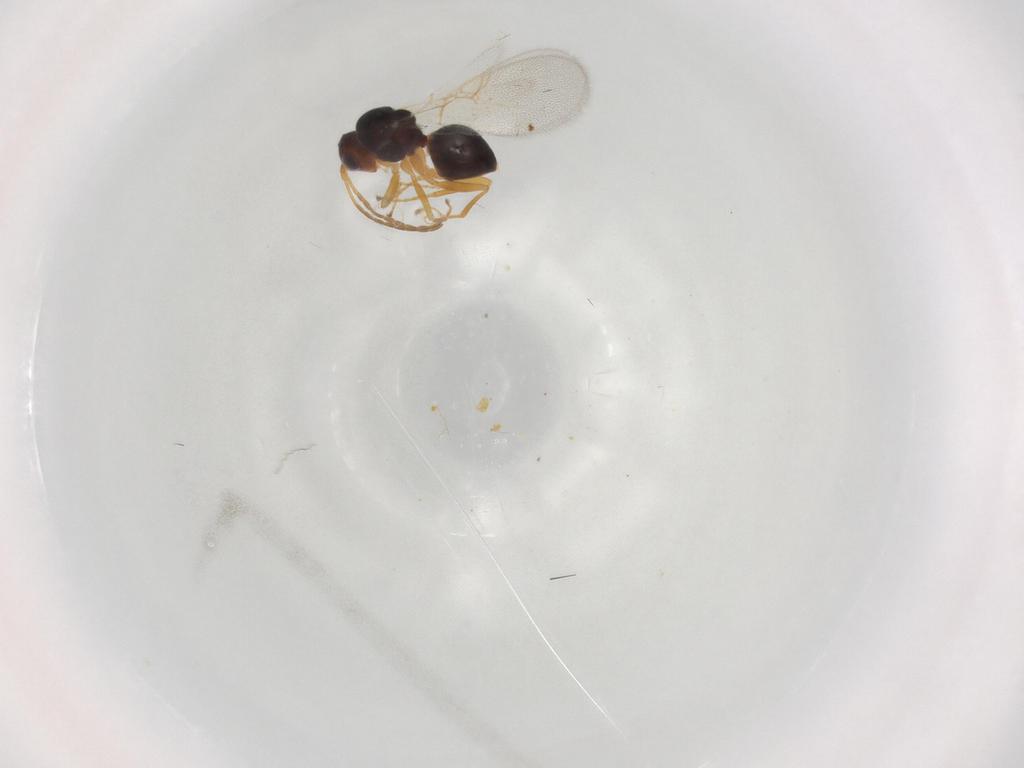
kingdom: Animalia
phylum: Arthropoda
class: Insecta
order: Hymenoptera
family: Figitidae
